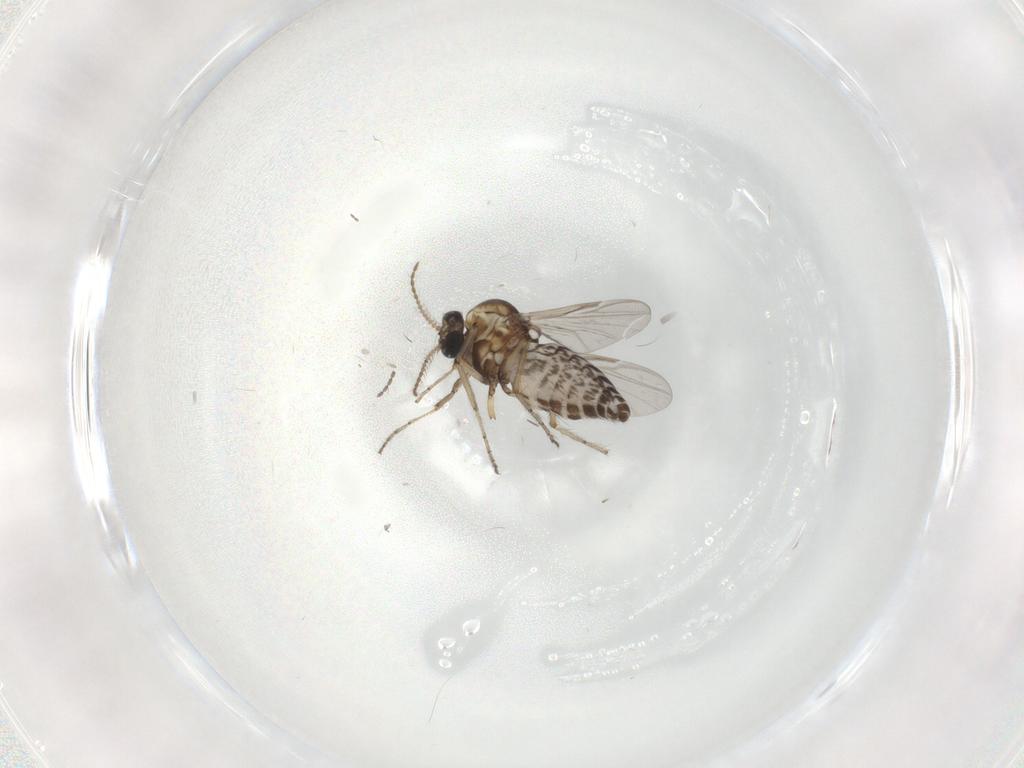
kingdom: Animalia
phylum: Arthropoda
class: Insecta
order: Diptera
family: Ceratopogonidae
